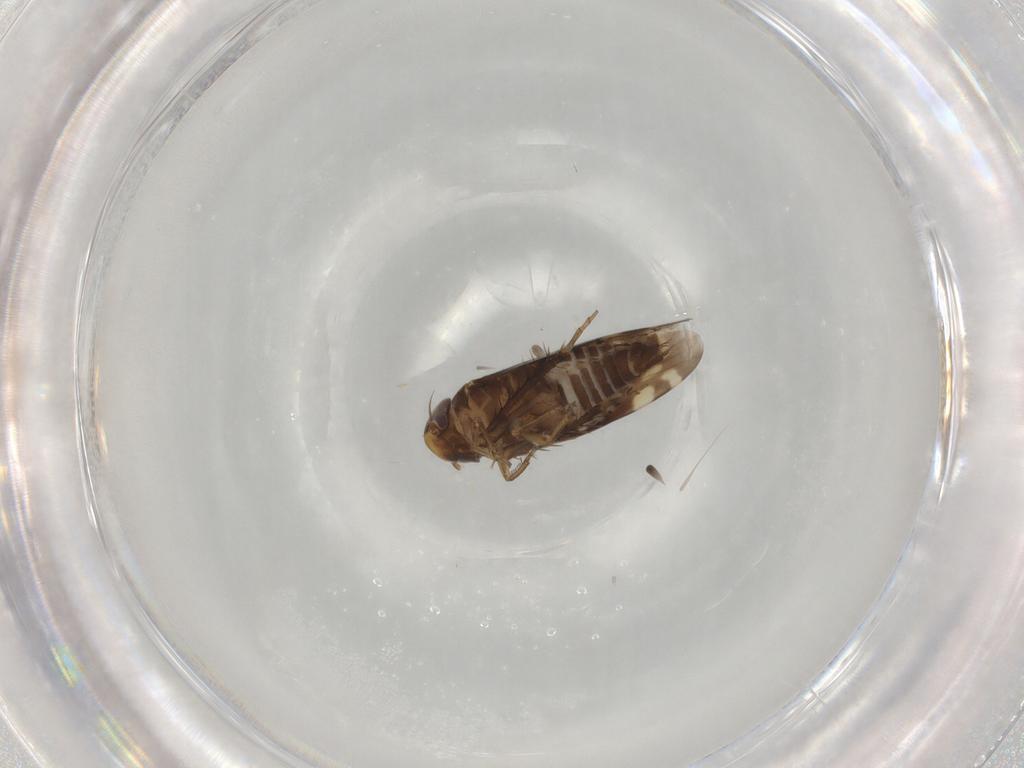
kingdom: Animalia
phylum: Arthropoda
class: Insecta
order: Hemiptera
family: Cicadellidae
